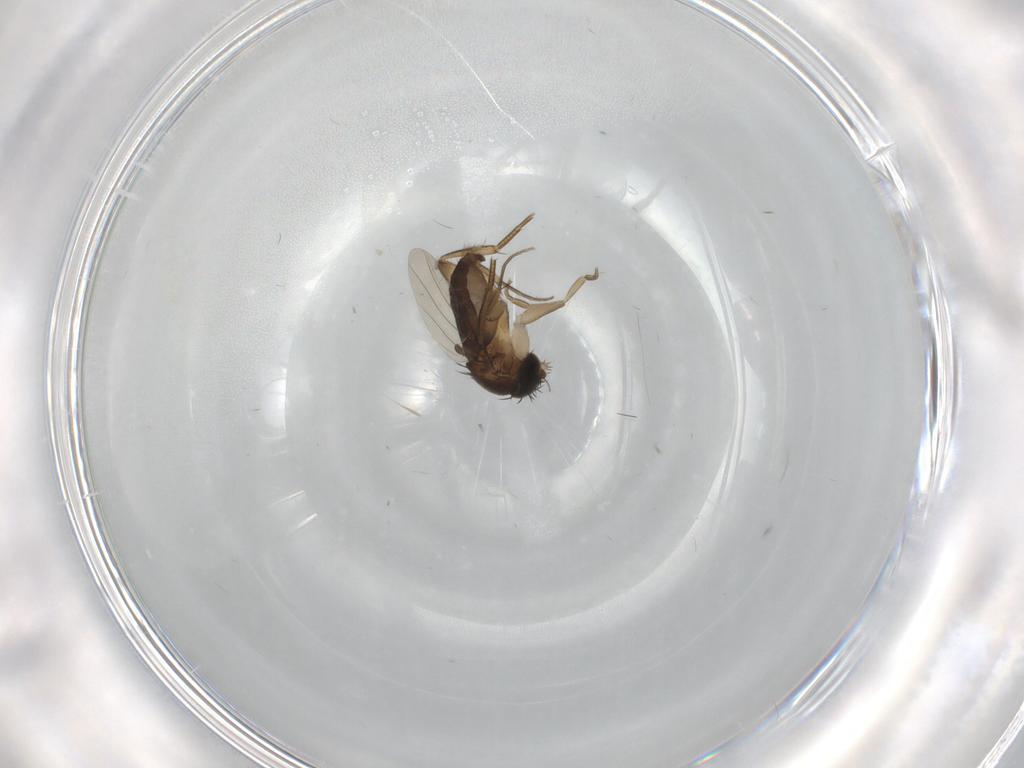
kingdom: Animalia
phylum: Arthropoda
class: Insecta
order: Diptera
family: Phoridae
